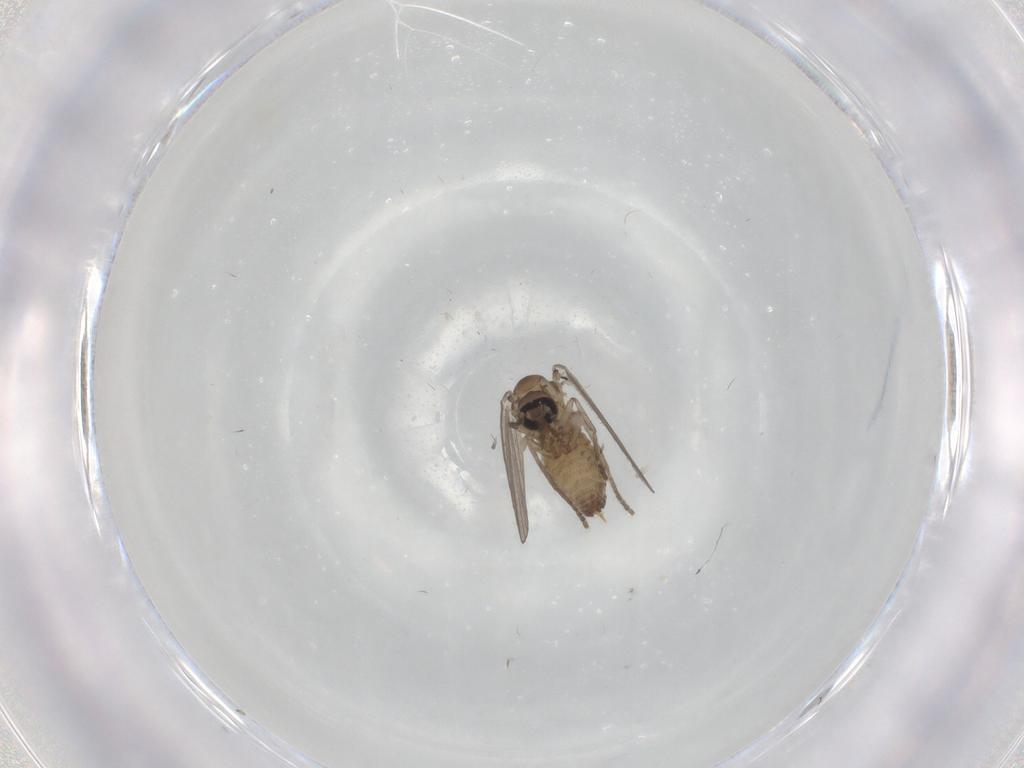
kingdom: Animalia
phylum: Arthropoda
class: Insecta
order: Diptera
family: Psychodidae
